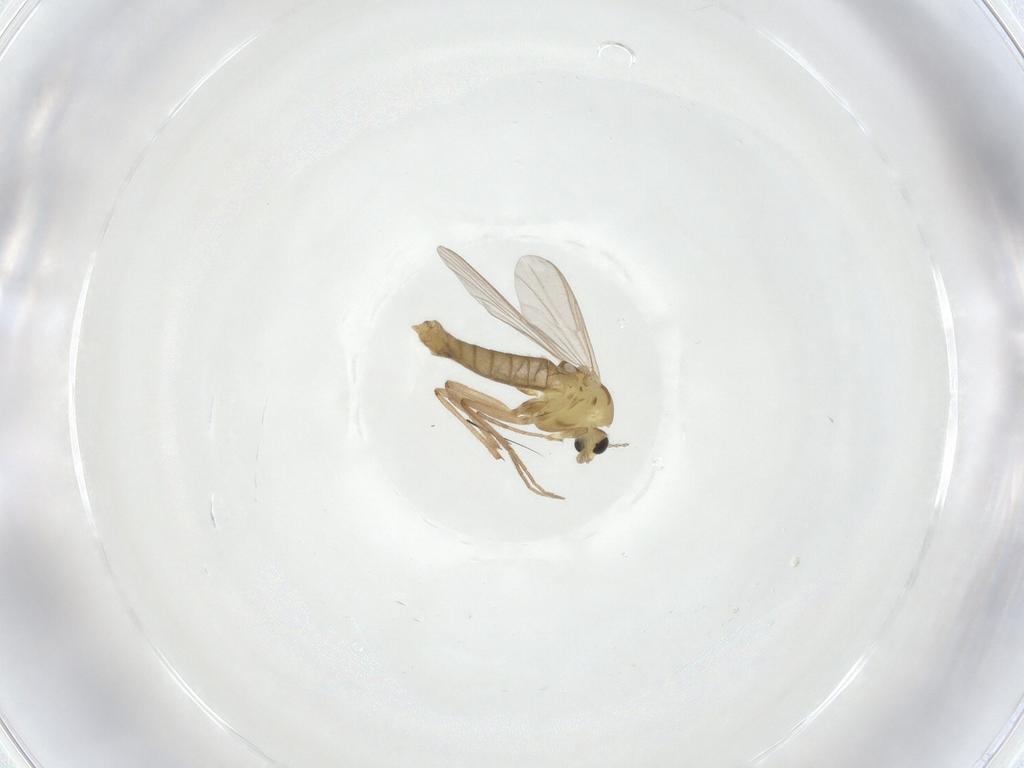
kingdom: Animalia
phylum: Arthropoda
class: Insecta
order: Diptera
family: Chironomidae
